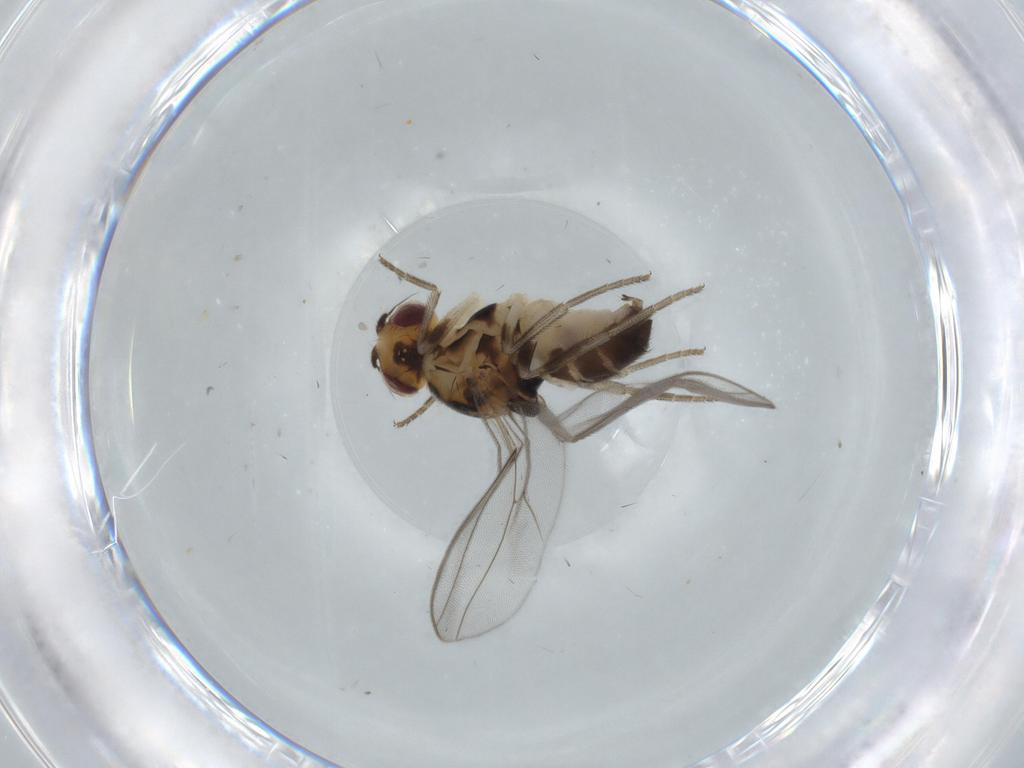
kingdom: Animalia
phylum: Arthropoda
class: Insecta
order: Diptera
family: Chloropidae
